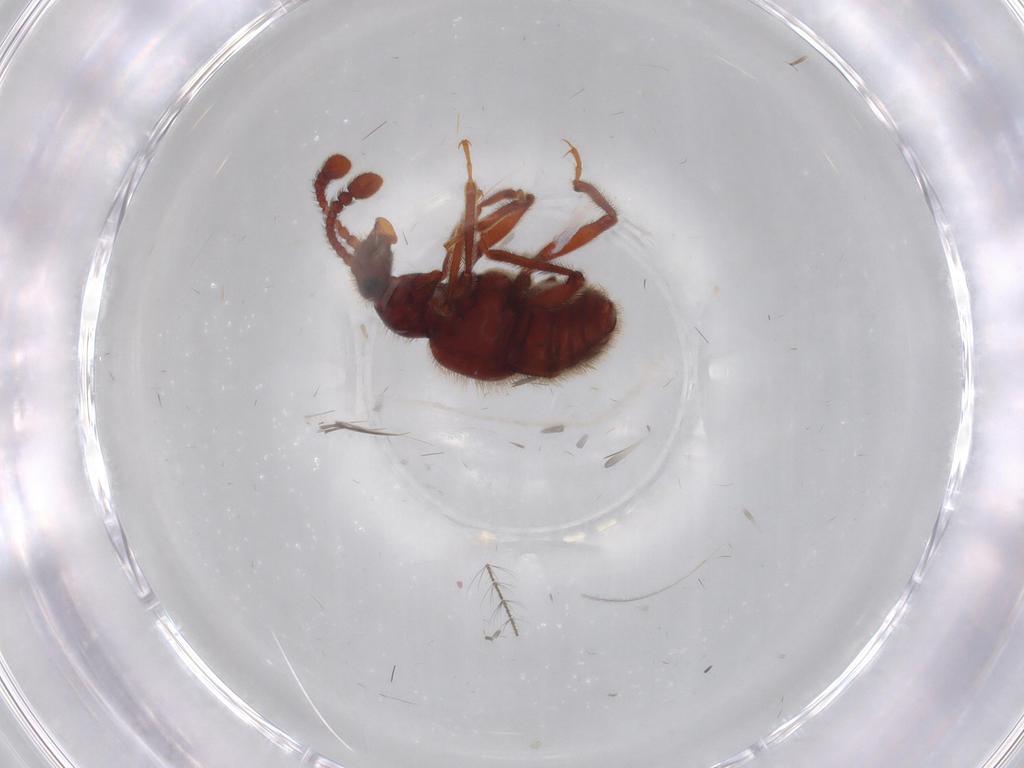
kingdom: Animalia
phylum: Arthropoda
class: Insecta
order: Coleoptera
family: Staphylinidae
